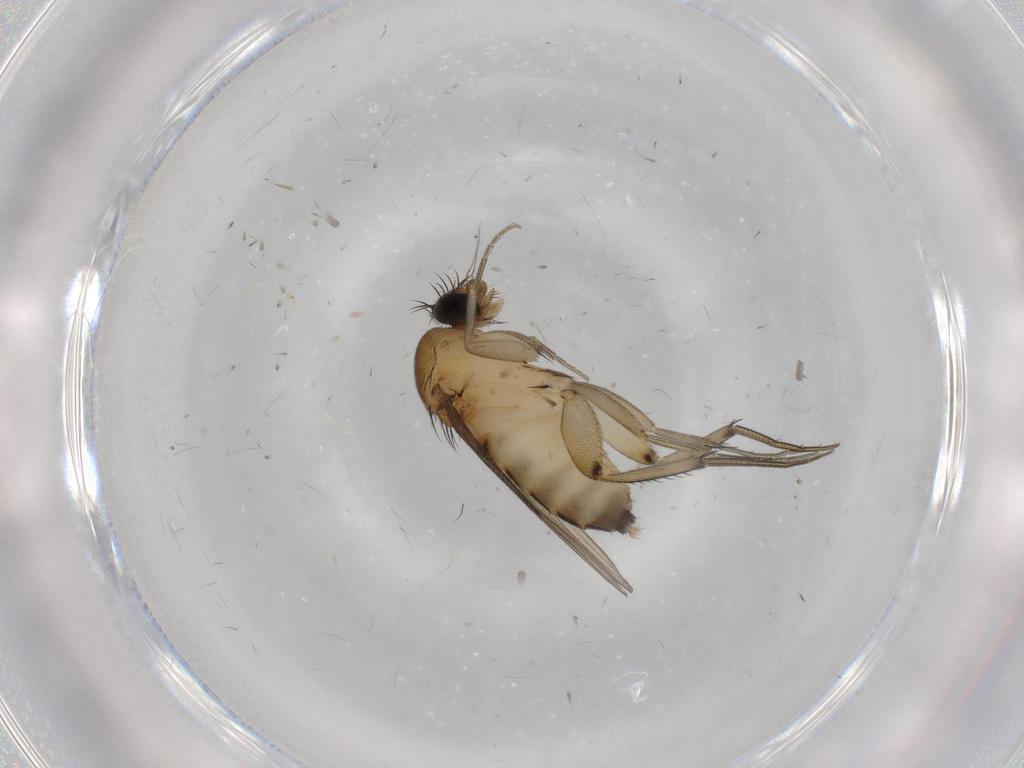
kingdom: Animalia
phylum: Arthropoda
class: Insecta
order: Diptera
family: Phoridae
